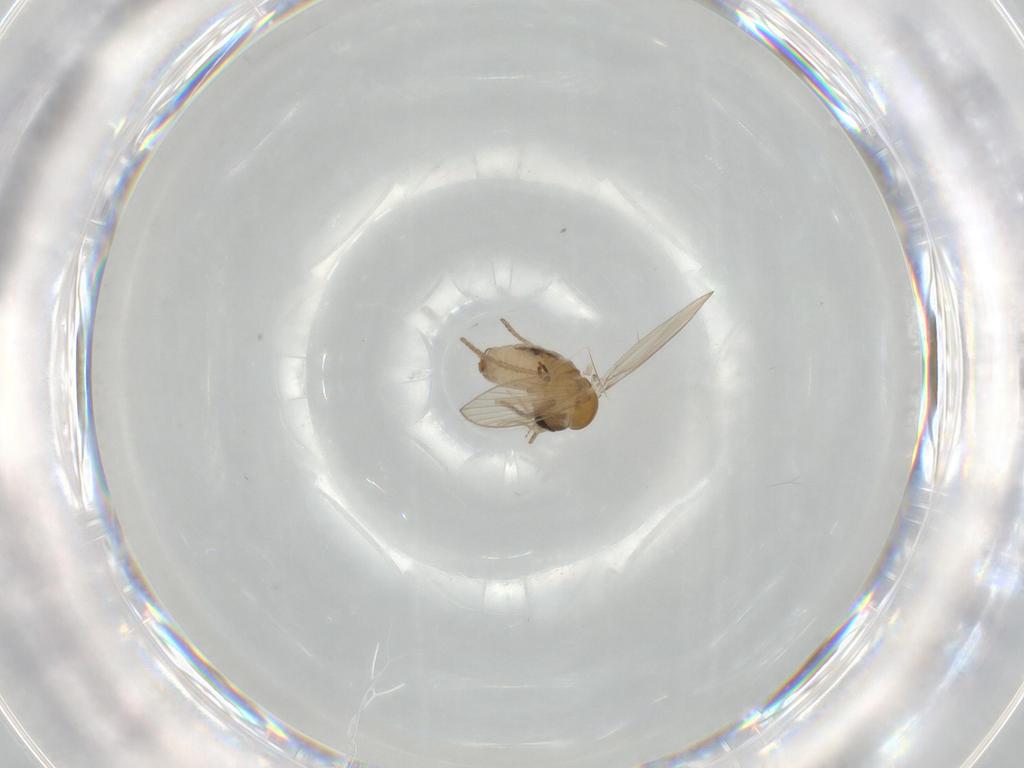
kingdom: Animalia
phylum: Arthropoda
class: Insecta
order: Diptera
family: Psychodidae
